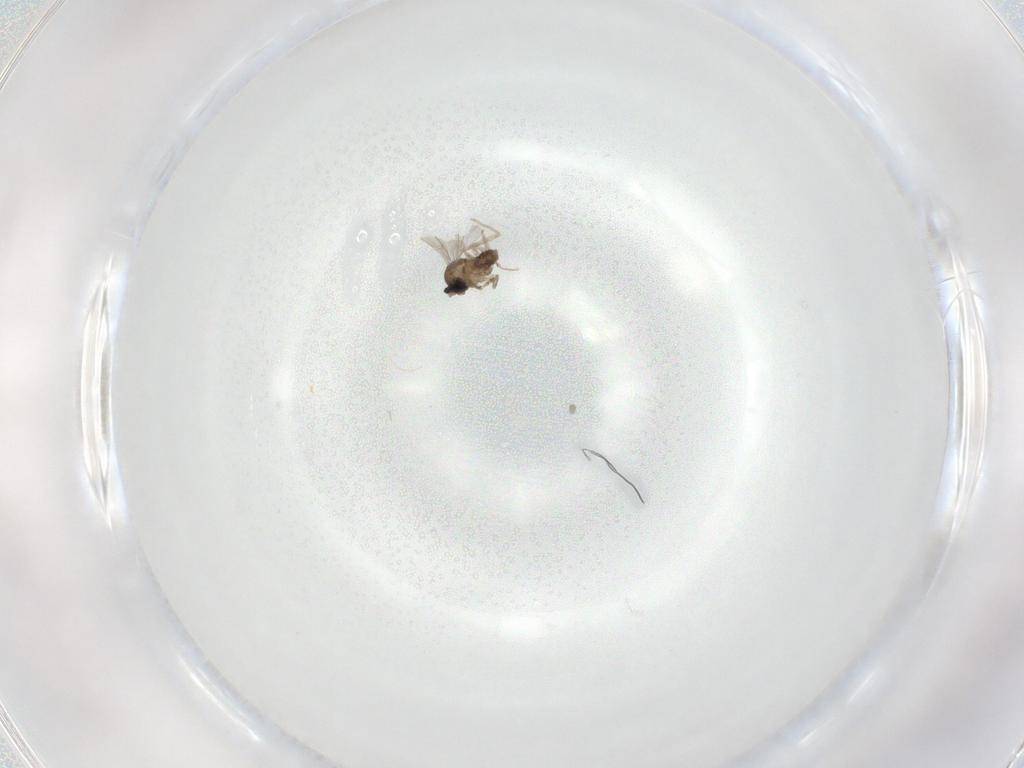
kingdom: Animalia
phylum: Arthropoda
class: Insecta
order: Diptera
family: Cecidomyiidae
